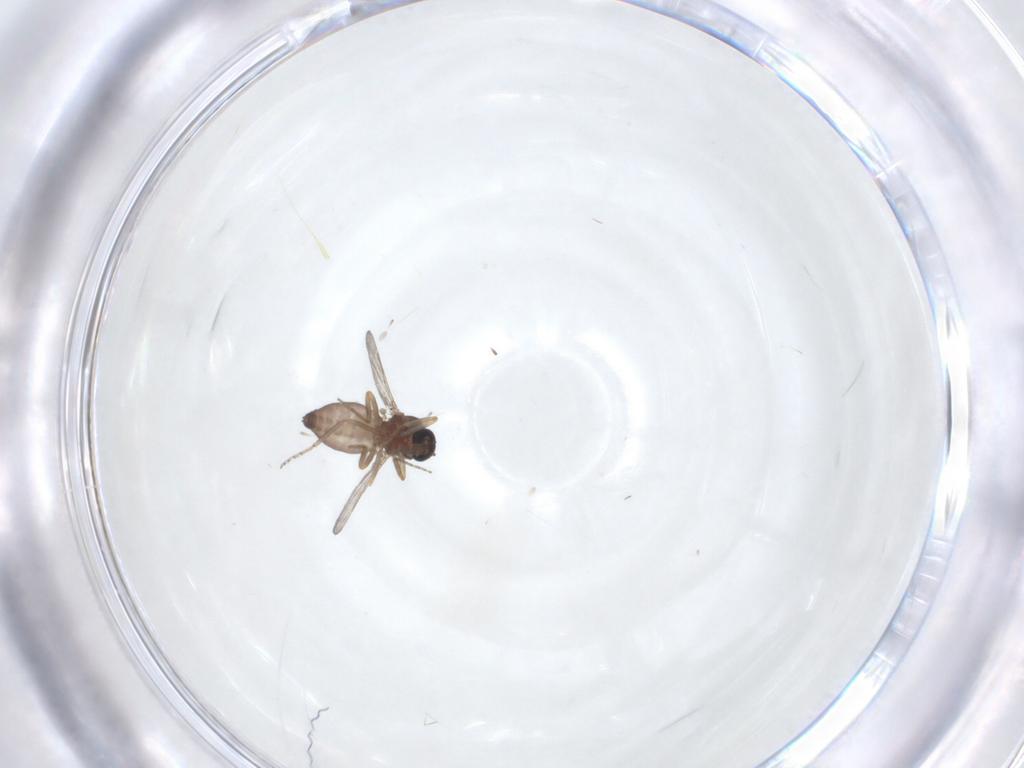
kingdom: Animalia
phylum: Arthropoda
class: Insecta
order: Diptera
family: Ceratopogonidae
